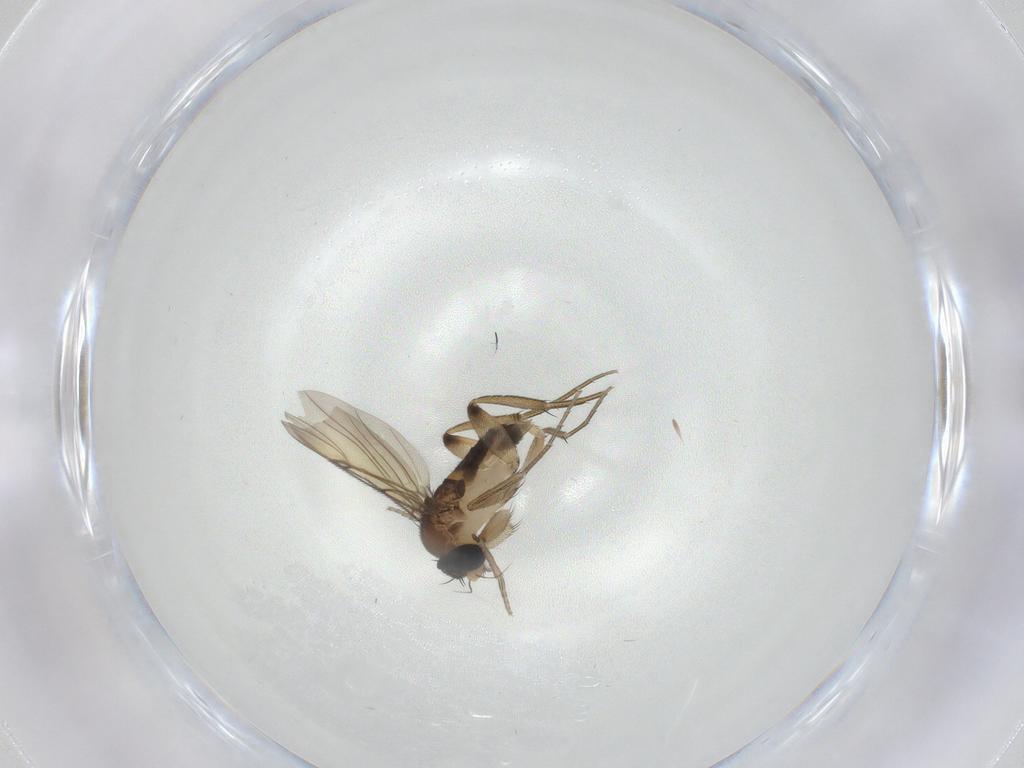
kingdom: Animalia
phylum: Arthropoda
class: Insecta
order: Diptera
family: Phoridae
